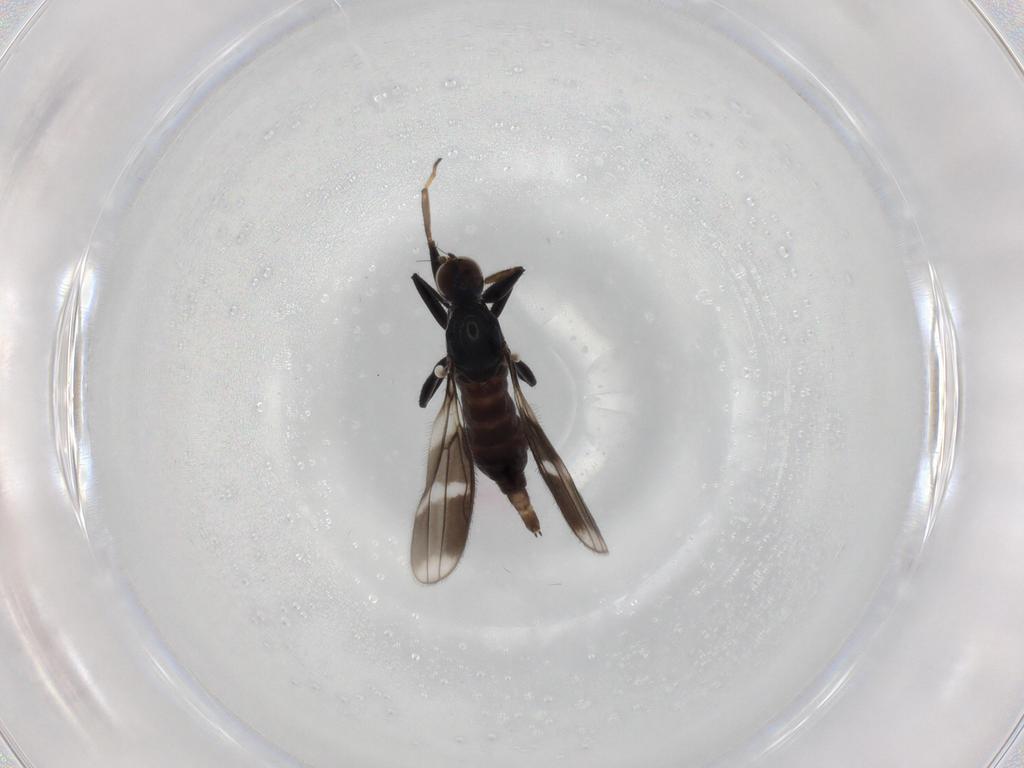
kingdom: Animalia
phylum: Arthropoda
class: Insecta
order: Diptera
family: Hybotidae
